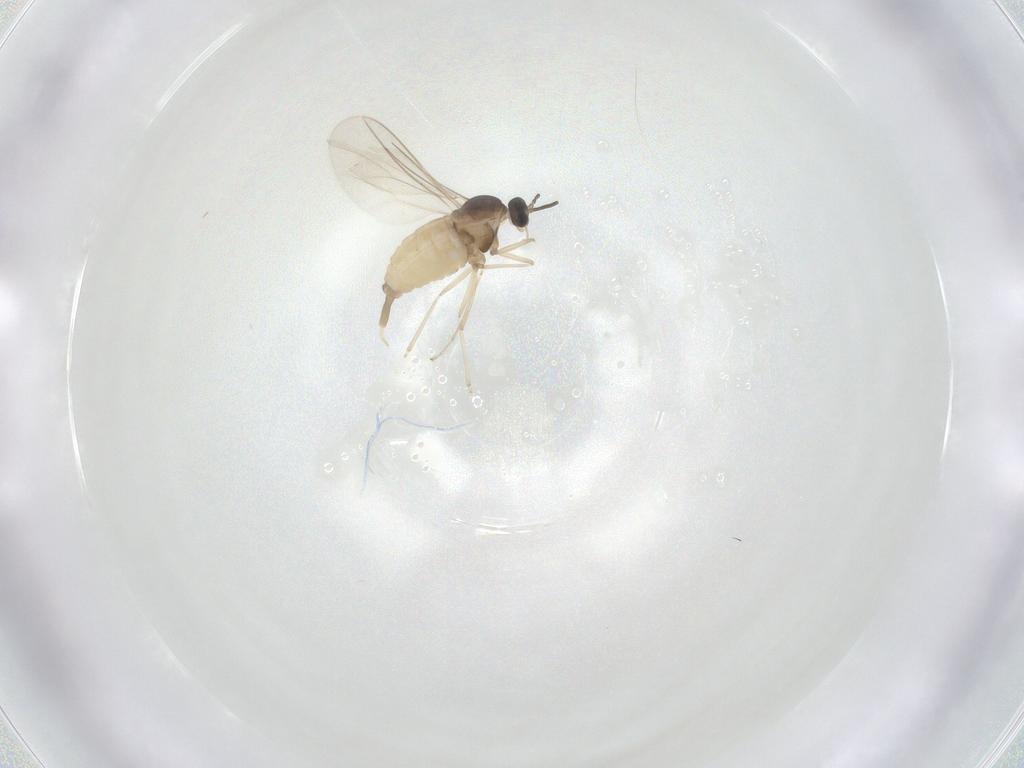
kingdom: Animalia
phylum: Arthropoda
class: Insecta
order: Diptera
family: Cecidomyiidae
